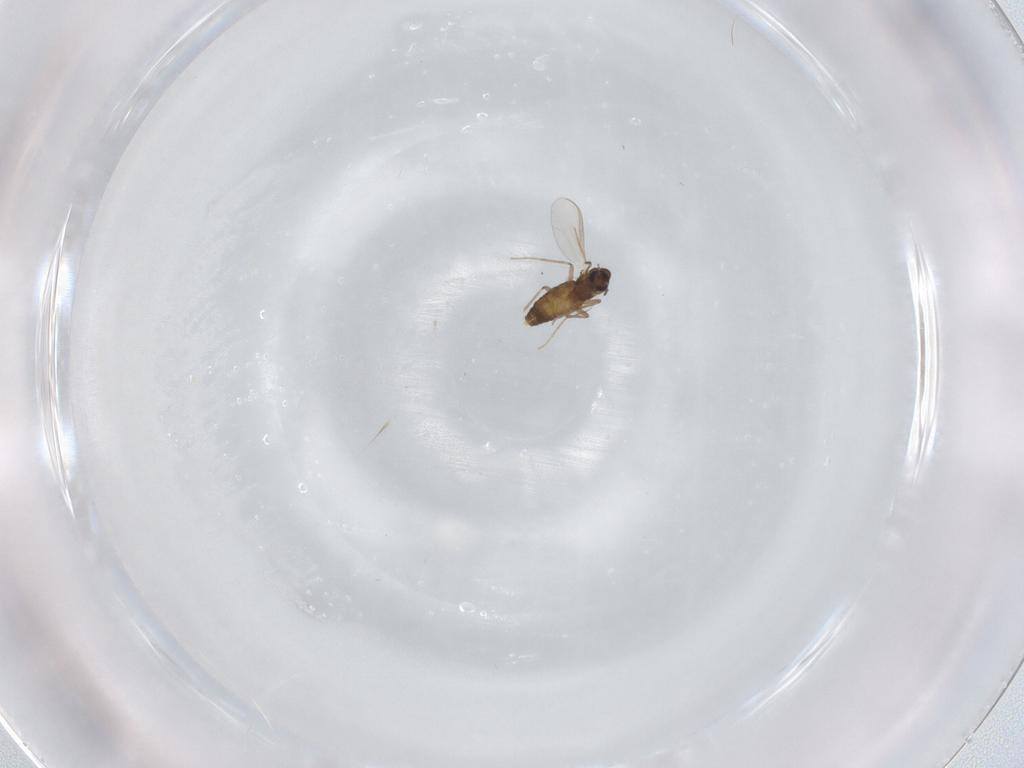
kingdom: Animalia
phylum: Arthropoda
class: Insecta
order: Diptera
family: Chironomidae
